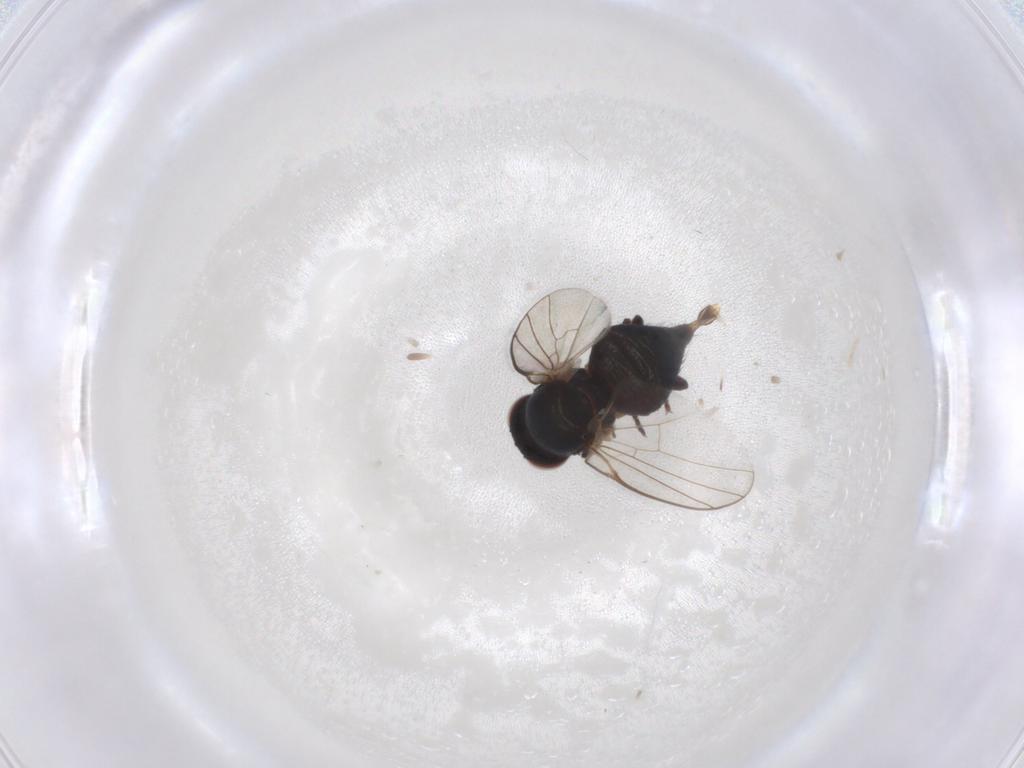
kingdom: Animalia
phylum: Arthropoda
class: Insecta
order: Diptera
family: Agromyzidae
